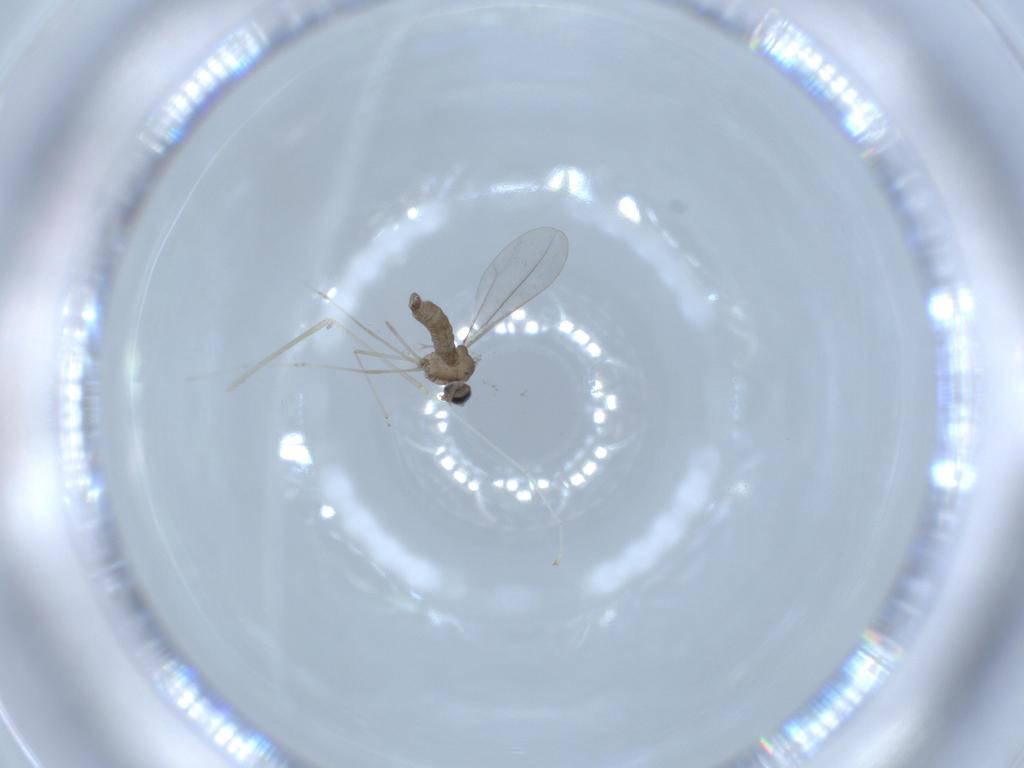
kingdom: Animalia
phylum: Arthropoda
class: Insecta
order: Diptera
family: Cecidomyiidae
